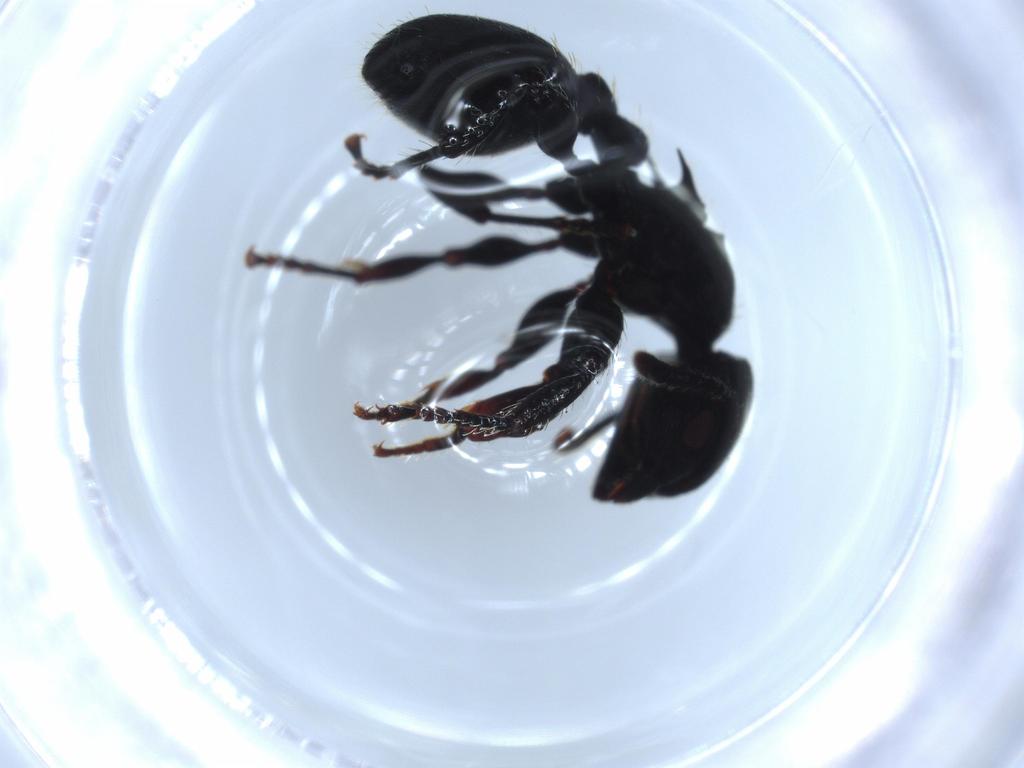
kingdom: Animalia
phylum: Arthropoda
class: Insecta
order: Hymenoptera
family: Formicidae
